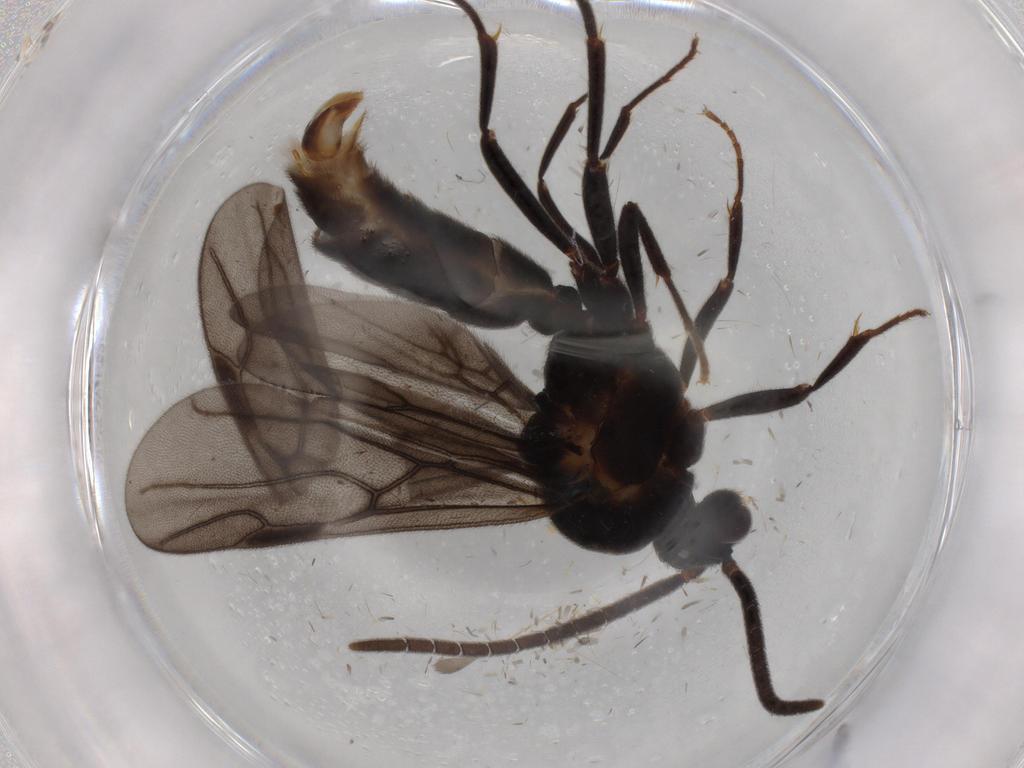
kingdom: Animalia
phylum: Arthropoda
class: Insecta
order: Hymenoptera
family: Formicidae
